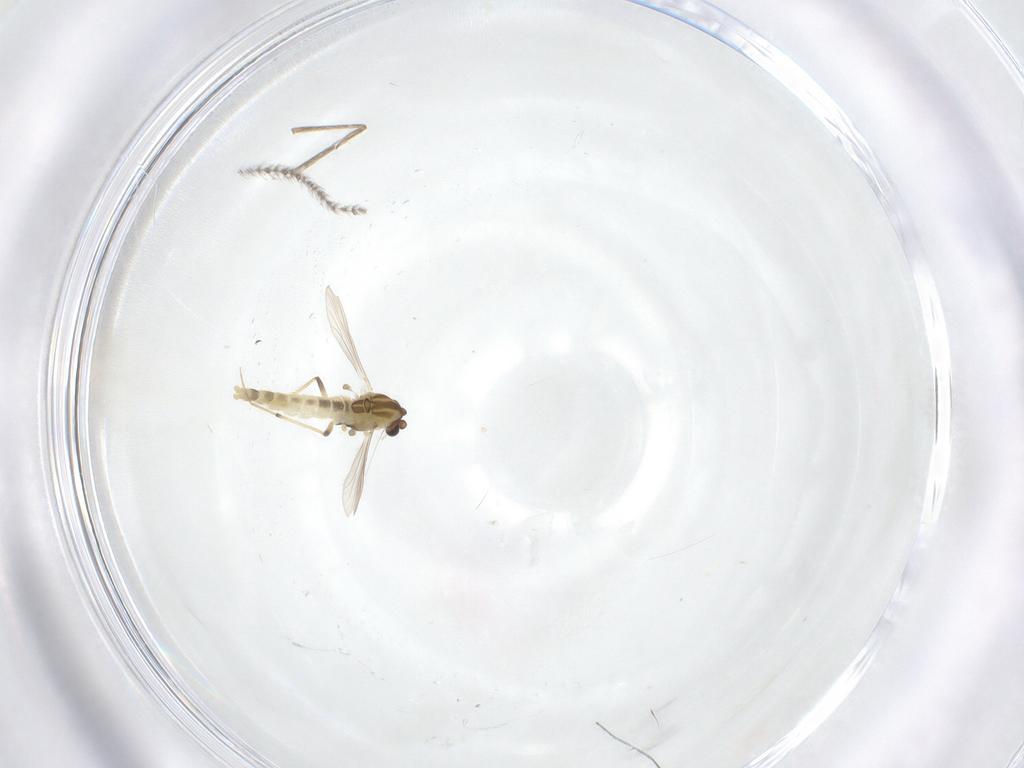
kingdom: Animalia
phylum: Arthropoda
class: Insecta
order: Diptera
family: Chironomidae
